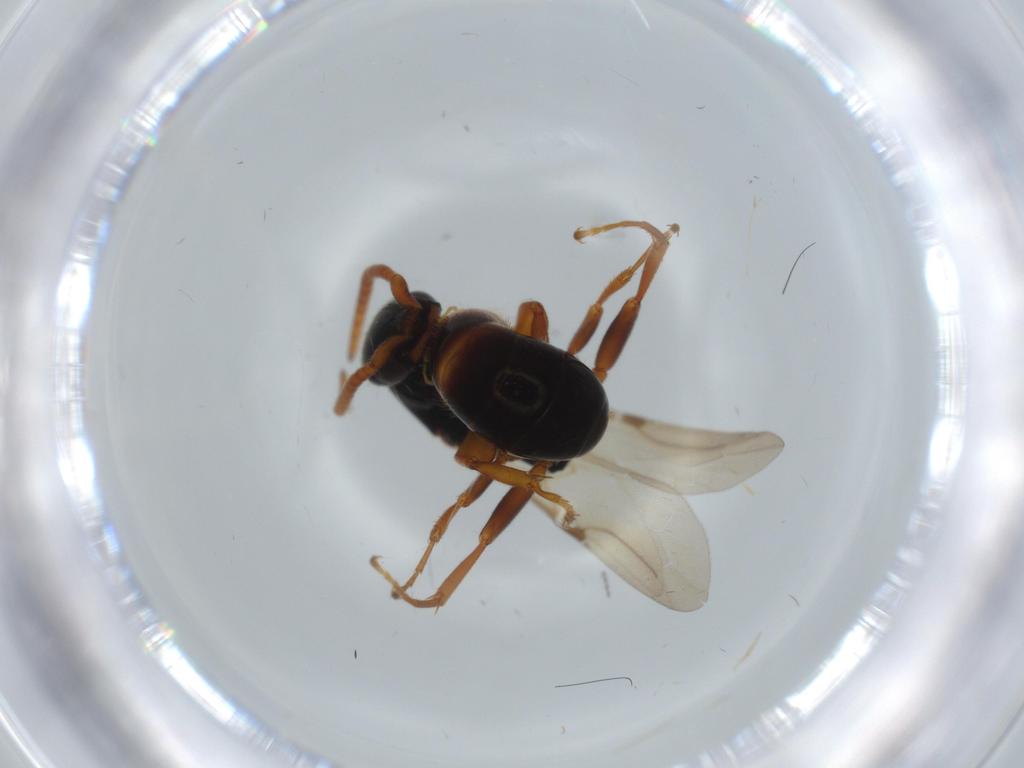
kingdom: Animalia
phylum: Arthropoda
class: Insecta
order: Hymenoptera
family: Bethylidae
